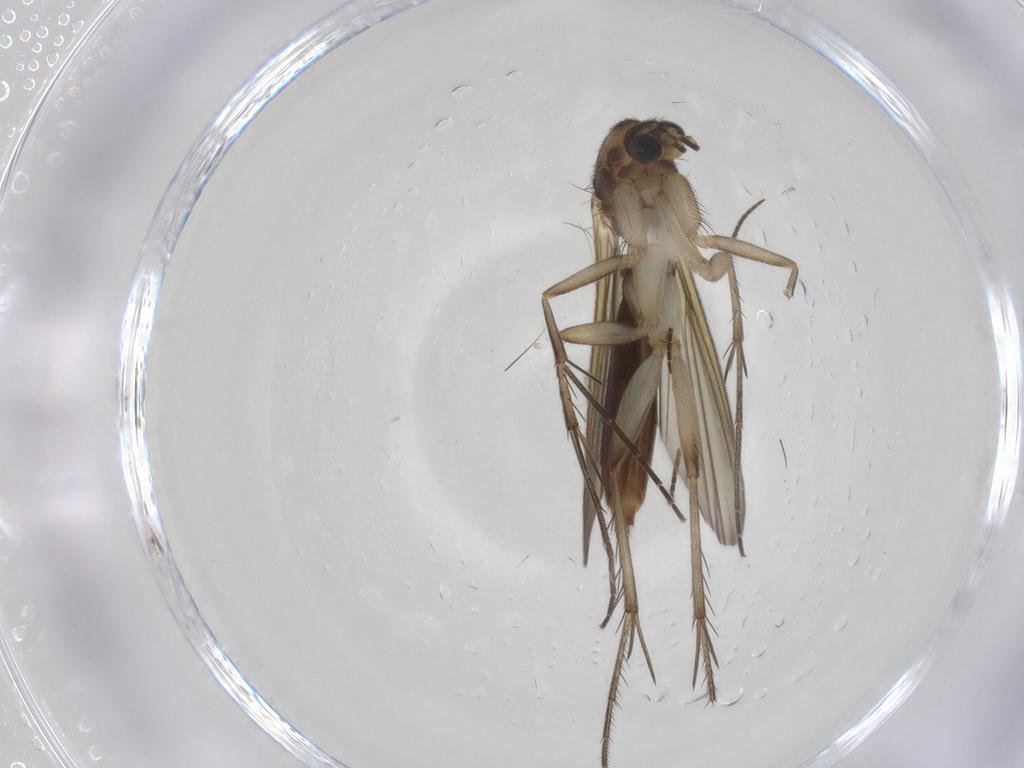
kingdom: Animalia
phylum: Arthropoda
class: Insecta
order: Diptera
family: Mycetophilidae
